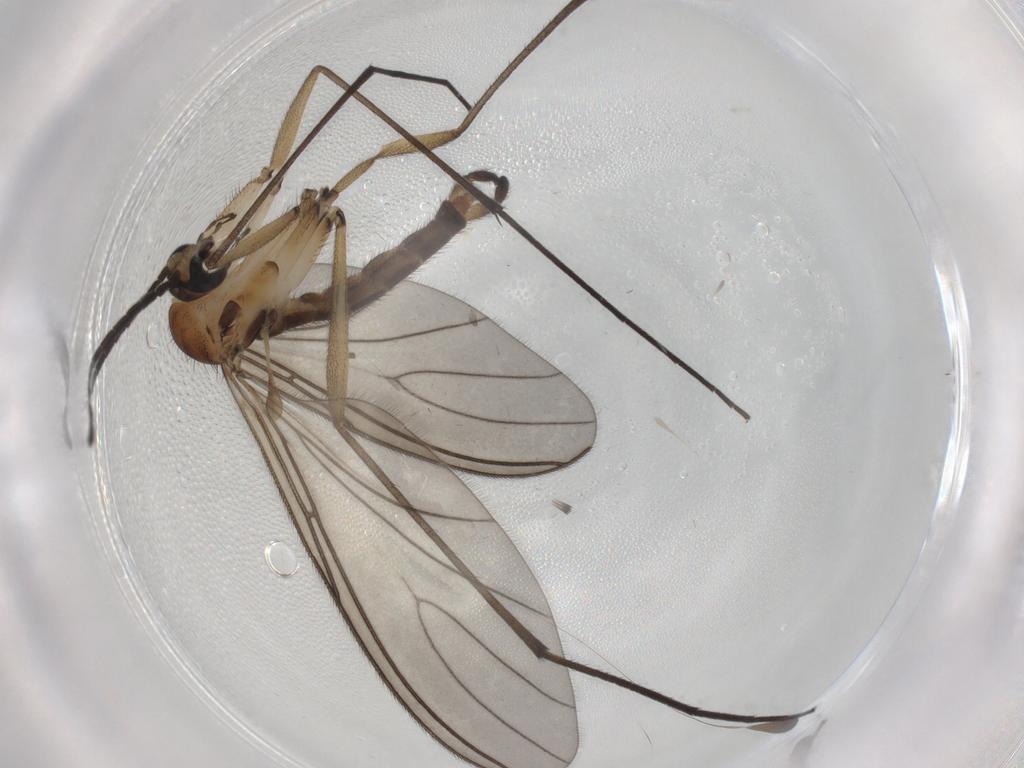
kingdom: Animalia
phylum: Arthropoda
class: Insecta
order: Diptera
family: Sciaridae
